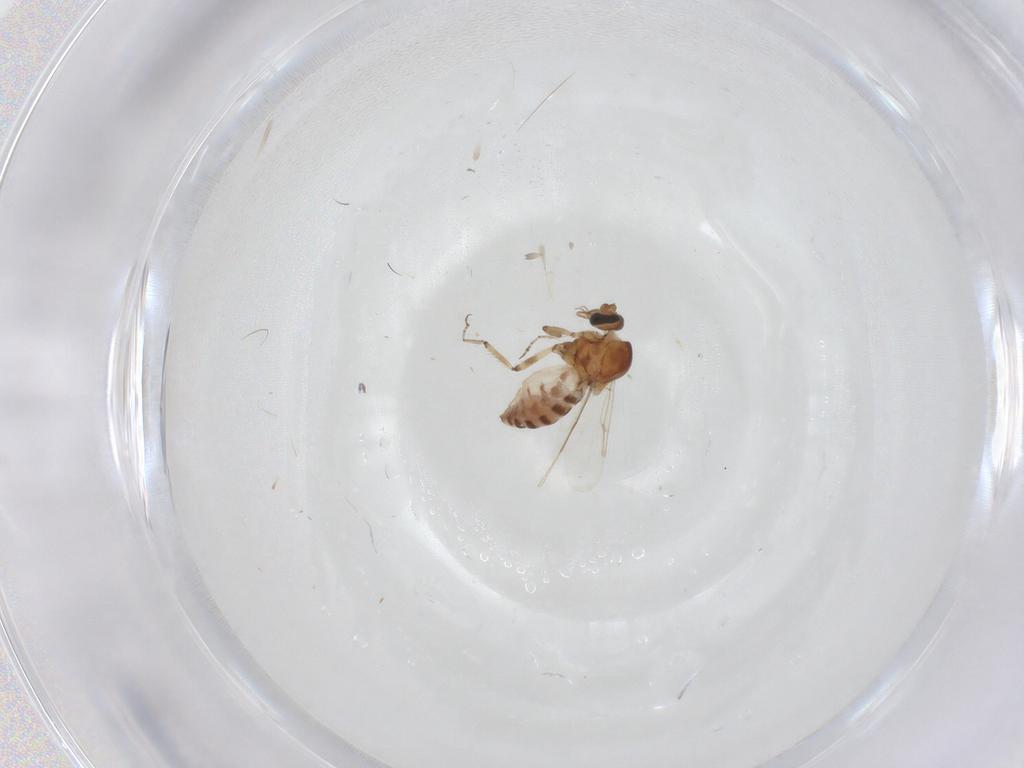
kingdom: Animalia
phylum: Arthropoda
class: Insecta
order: Diptera
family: Ceratopogonidae
